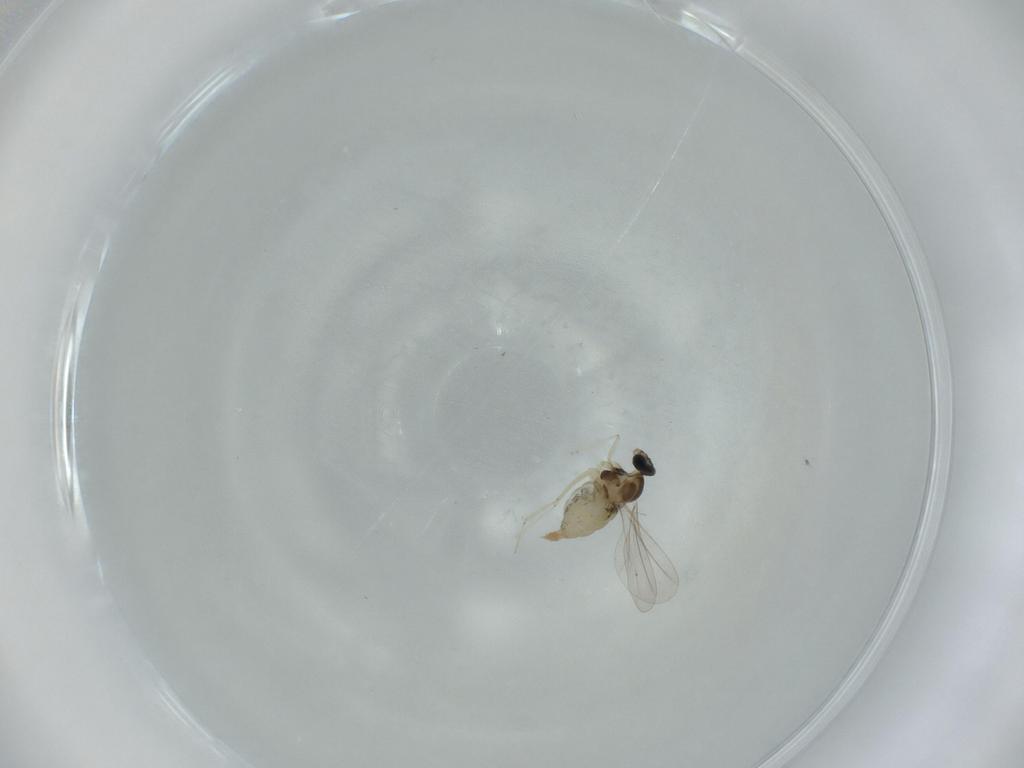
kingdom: Animalia
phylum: Arthropoda
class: Insecta
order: Diptera
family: Cecidomyiidae
